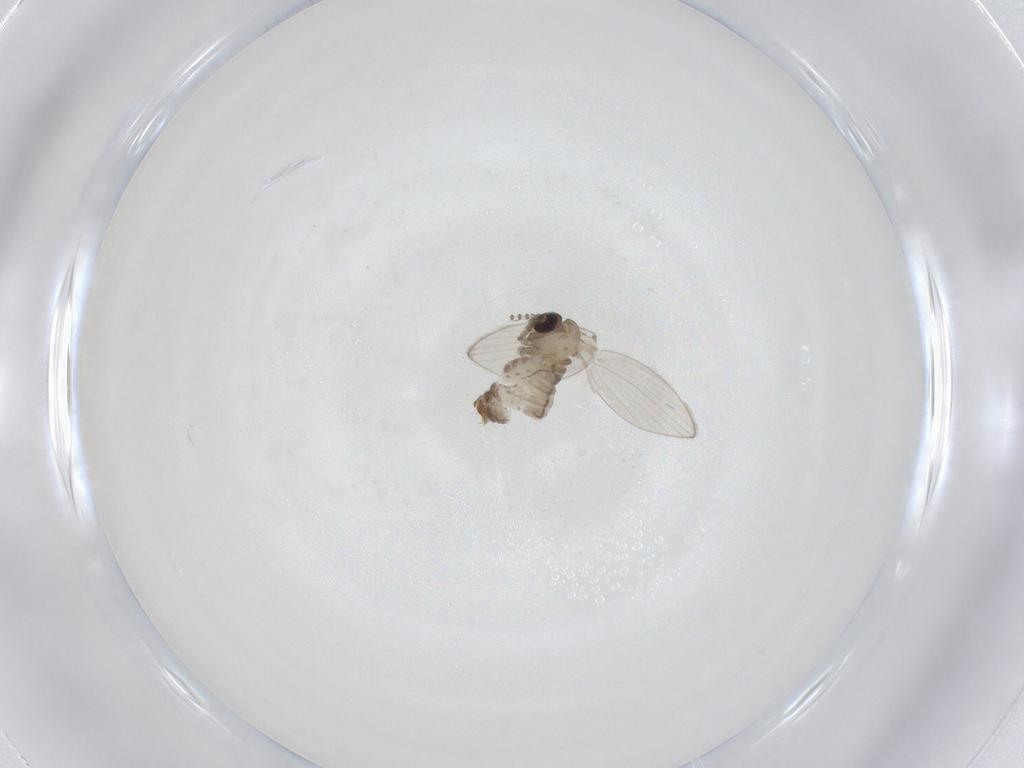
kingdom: Animalia
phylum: Arthropoda
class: Insecta
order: Diptera
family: Psychodidae
